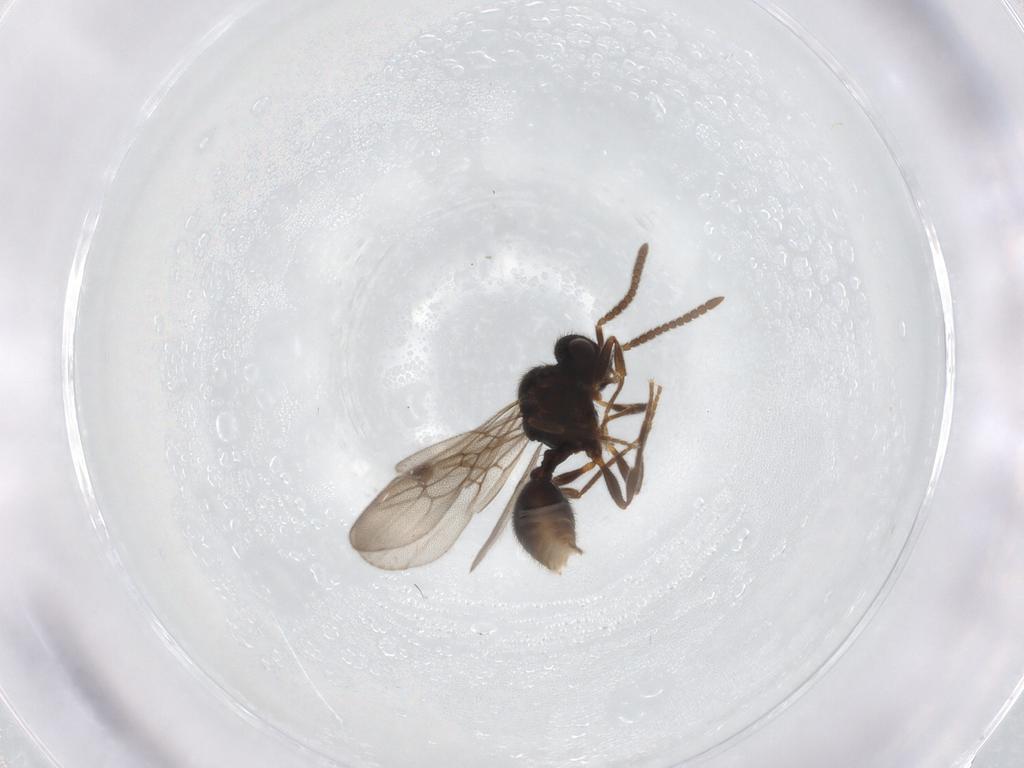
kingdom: Animalia
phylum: Arthropoda
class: Insecta
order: Hymenoptera
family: Formicidae
